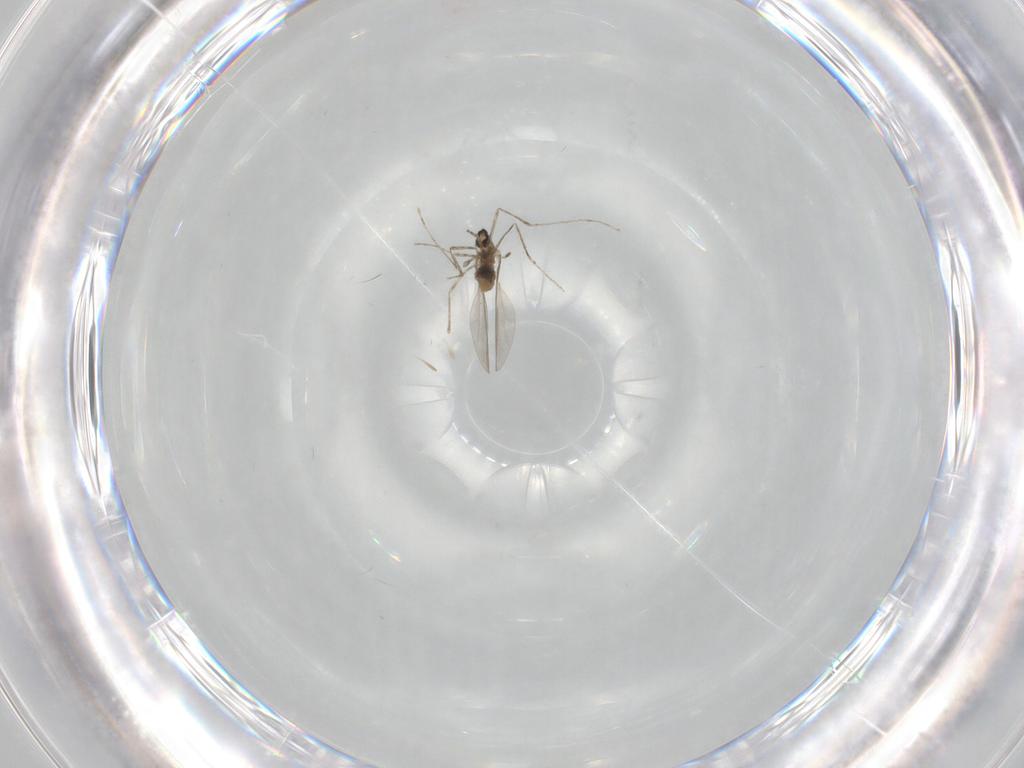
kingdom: Animalia
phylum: Arthropoda
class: Insecta
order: Diptera
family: Cecidomyiidae
